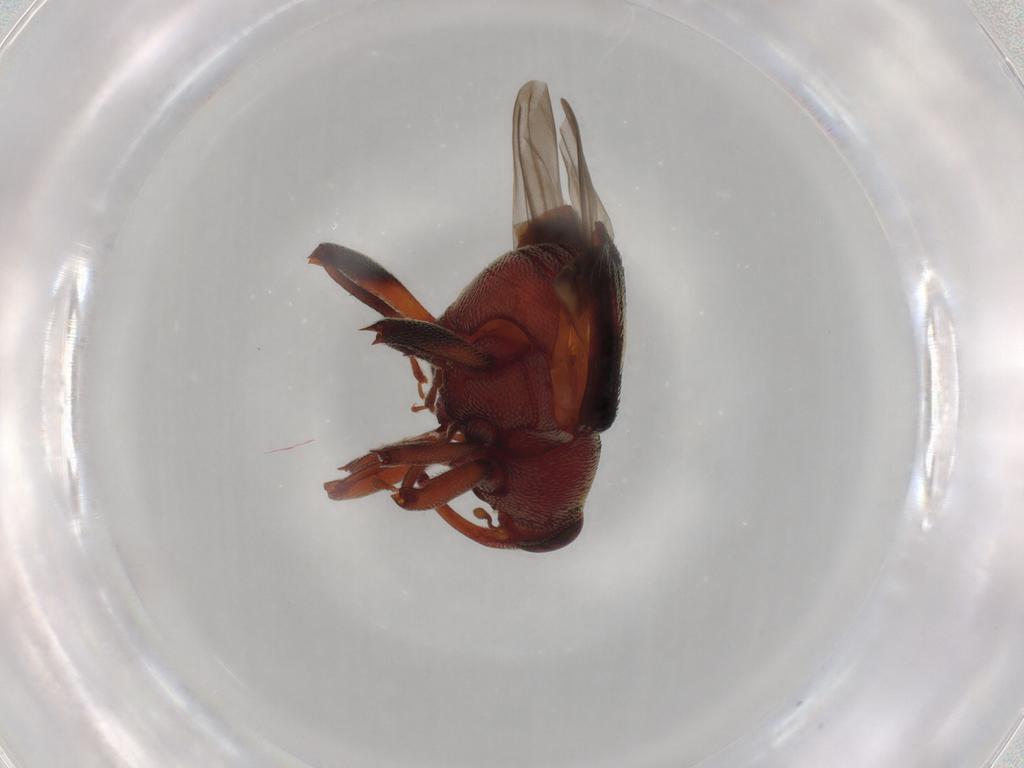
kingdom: Animalia
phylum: Arthropoda
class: Insecta
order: Coleoptera
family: Curculionidae
